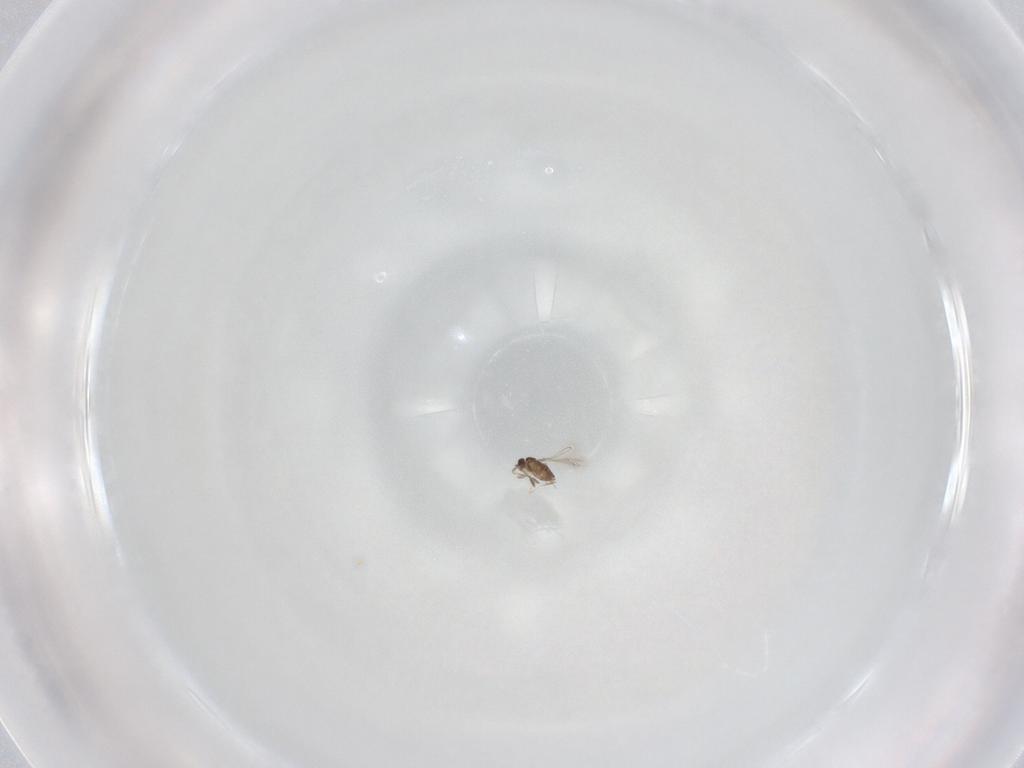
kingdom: Animalia
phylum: Arthropoda
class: Insecta
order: Hymenoptera
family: Mymaridae
